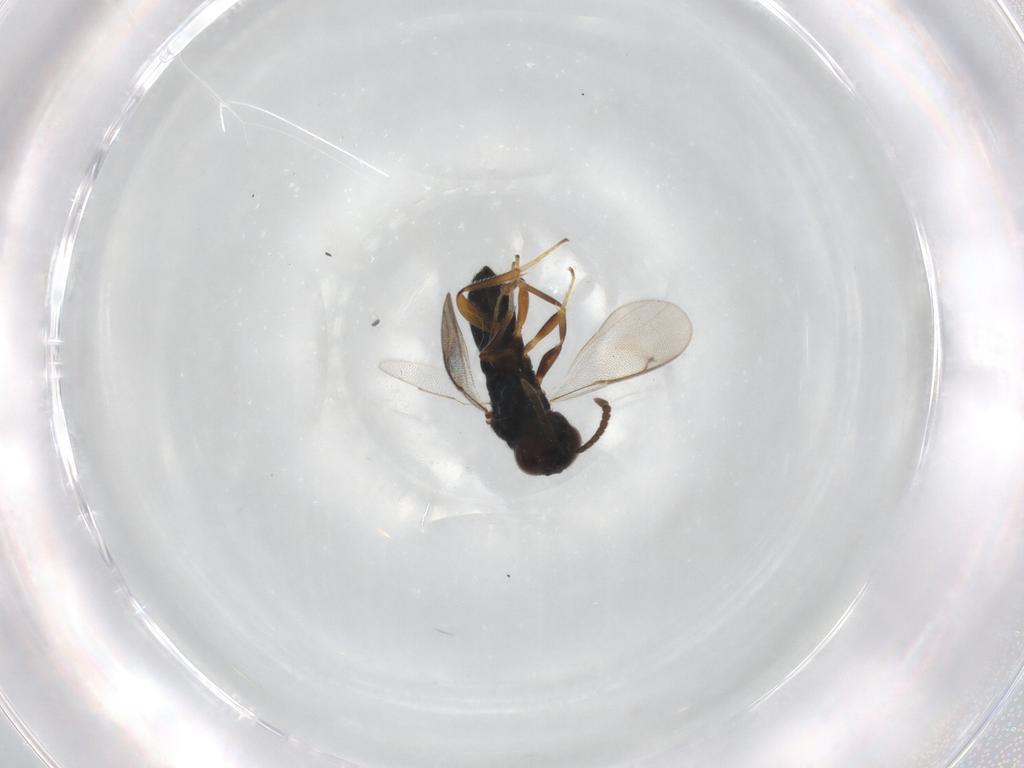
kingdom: Animalia
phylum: Arthropoda
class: Insecta
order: Hymenoptera
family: Trichogrammatidae
